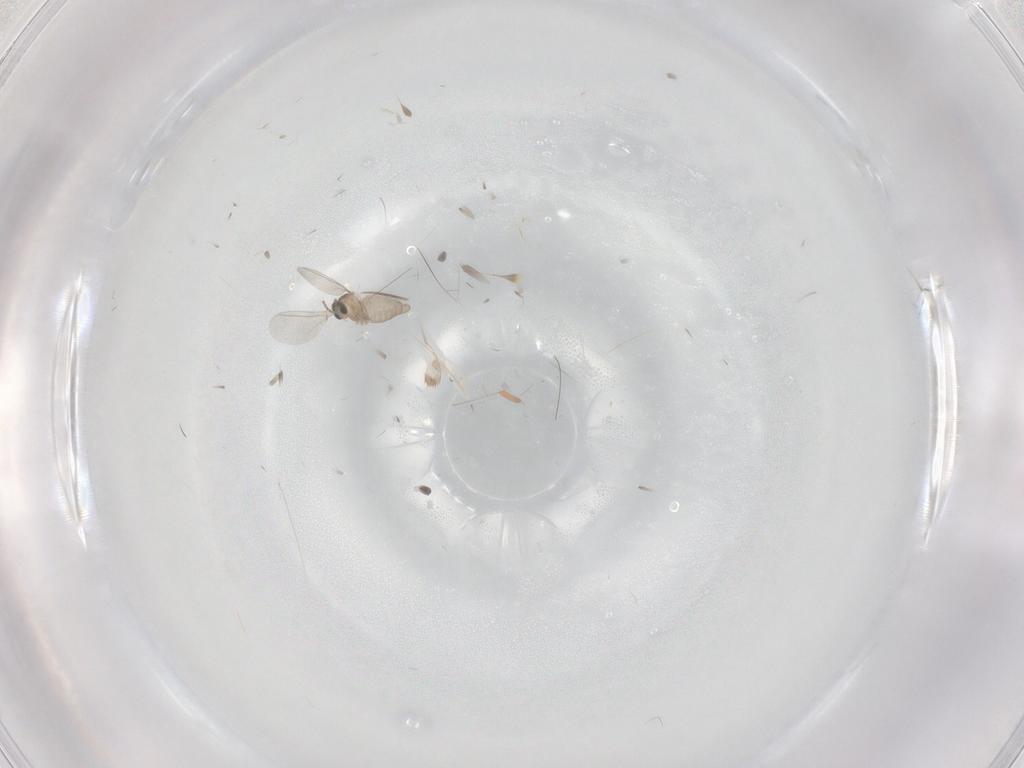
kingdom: Animalia
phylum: Arthropoda
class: Insecta
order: Diptera
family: Cecidomyiidae
